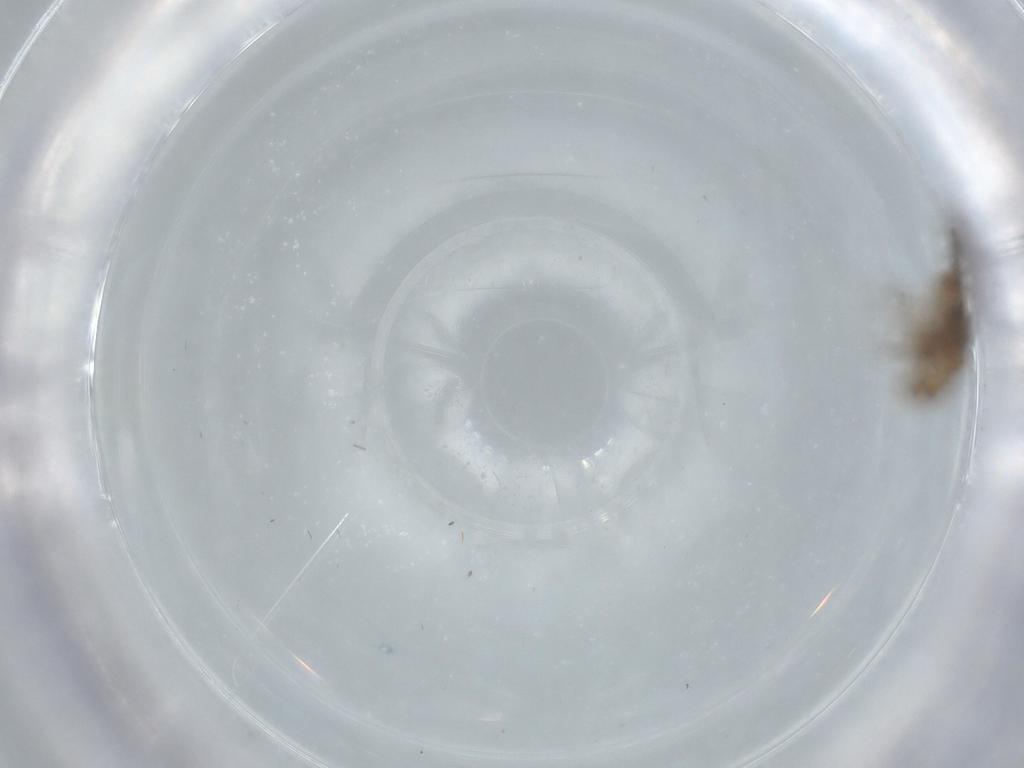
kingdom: Animalia
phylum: Arthropoda
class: Insecta
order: Psocodea
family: Lepidopsocidae
